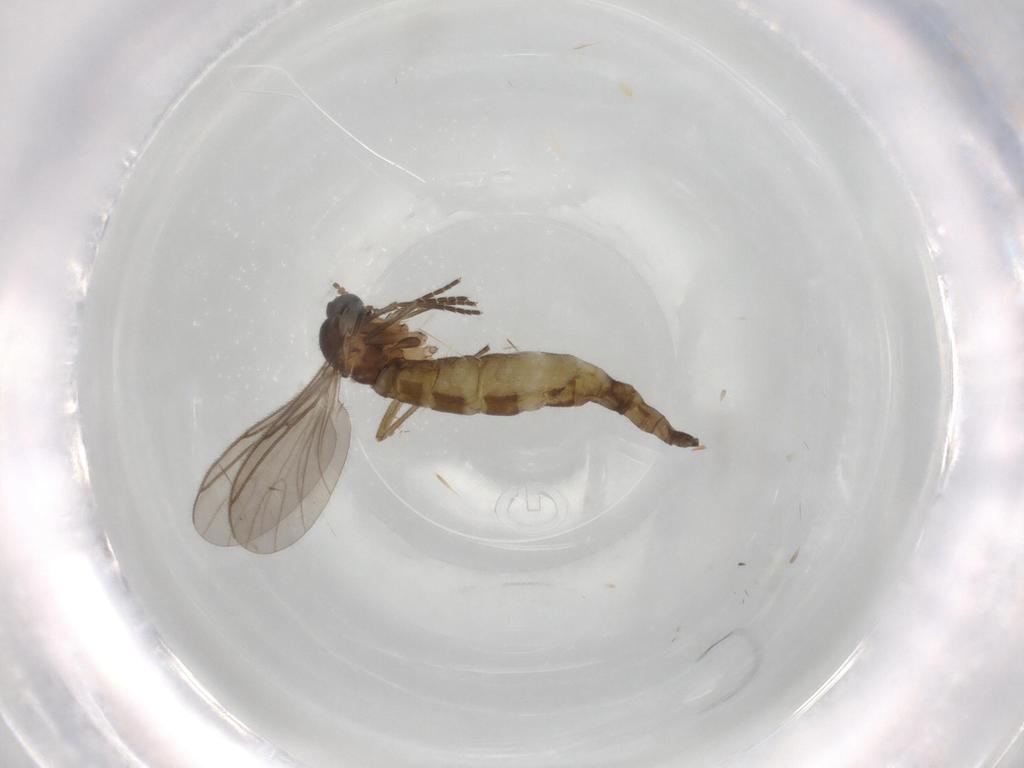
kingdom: Animalia
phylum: Arthropoda
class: Insecta
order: Diptera
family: Sciaridae
